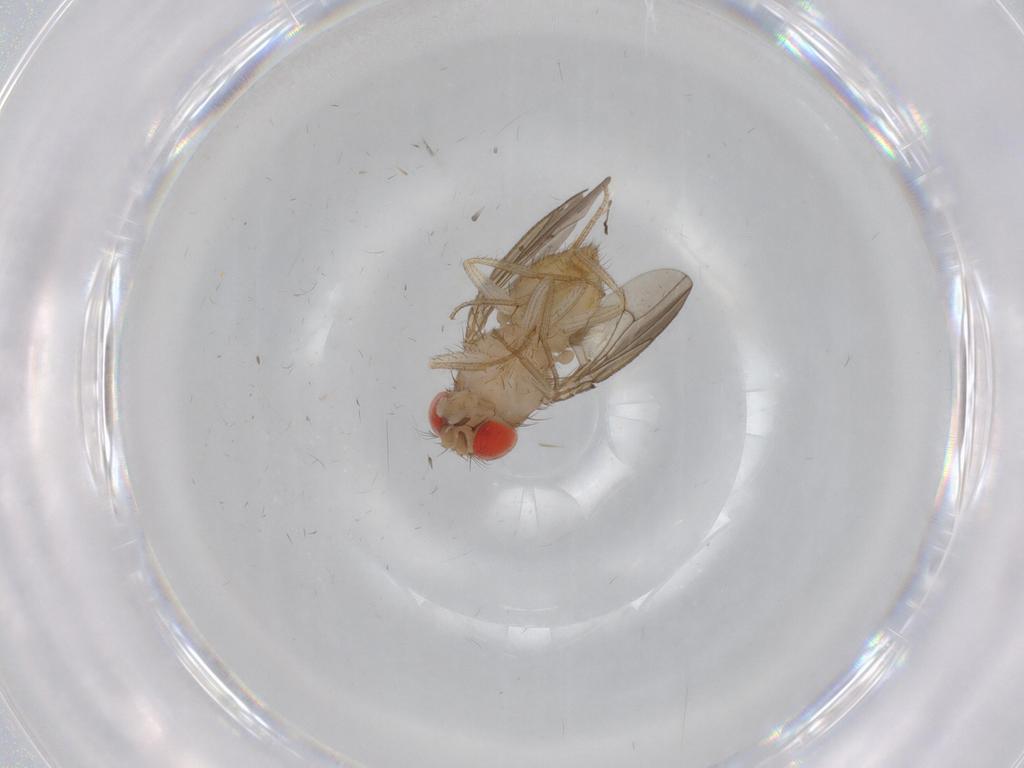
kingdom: Animalia
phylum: Arthropoda
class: Insecta
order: Diptera
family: Drosophilidae
